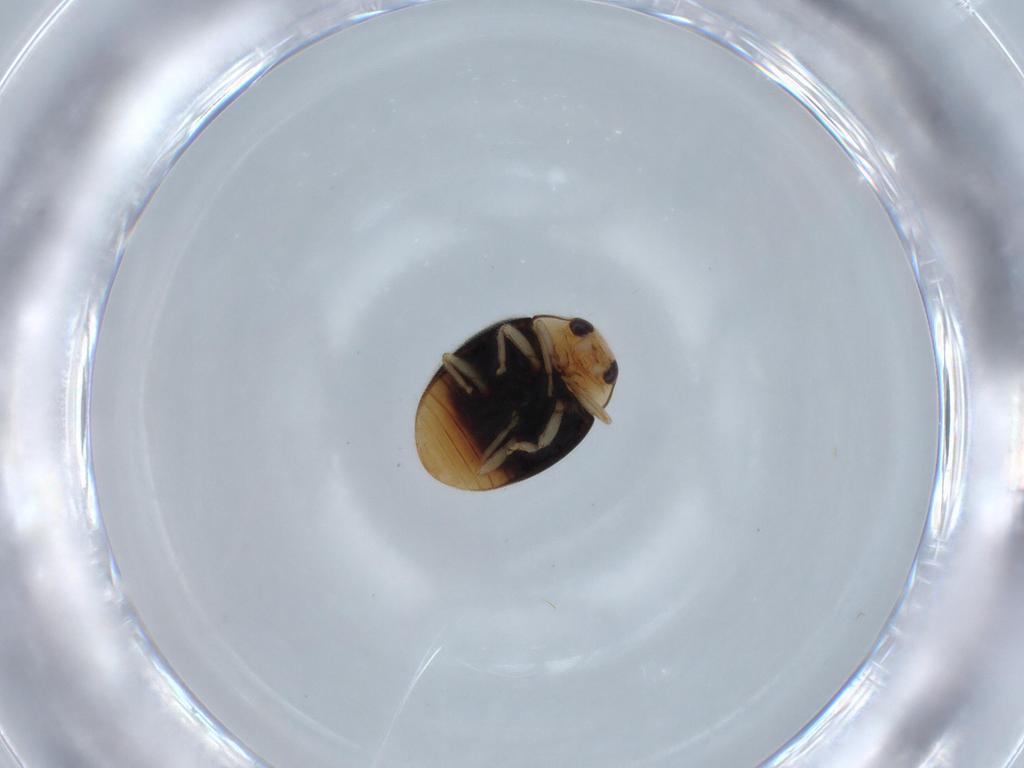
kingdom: Animalia
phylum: Arthropoda
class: Insecta
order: Coleoptera
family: Coccinellidae
